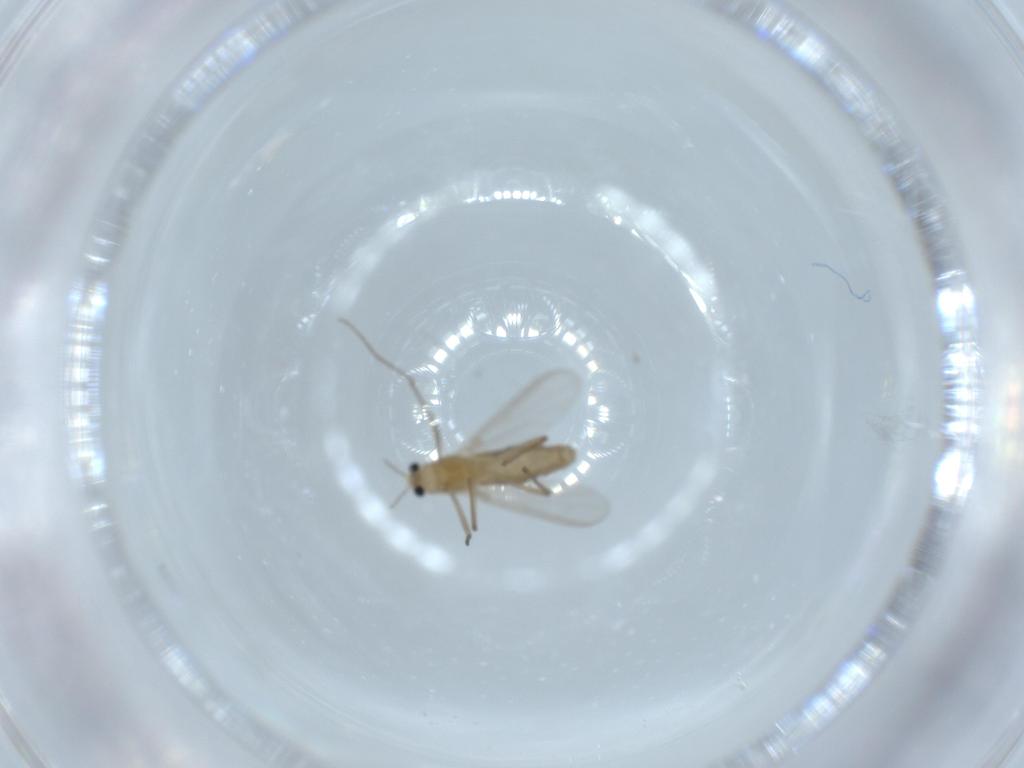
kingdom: Animalia
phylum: Arthropoda
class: Insecta
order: Diptera
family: Chironomidae
